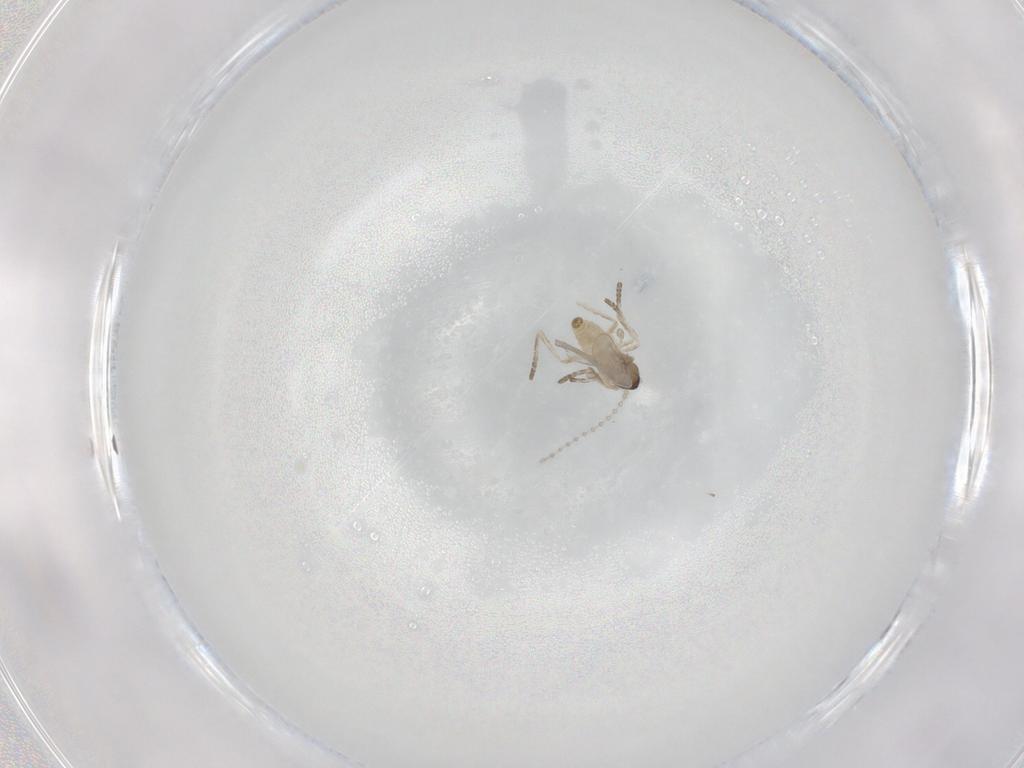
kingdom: Animalia
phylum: Arthropoda
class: Insecta
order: Diptera
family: Cecidomyiidae
